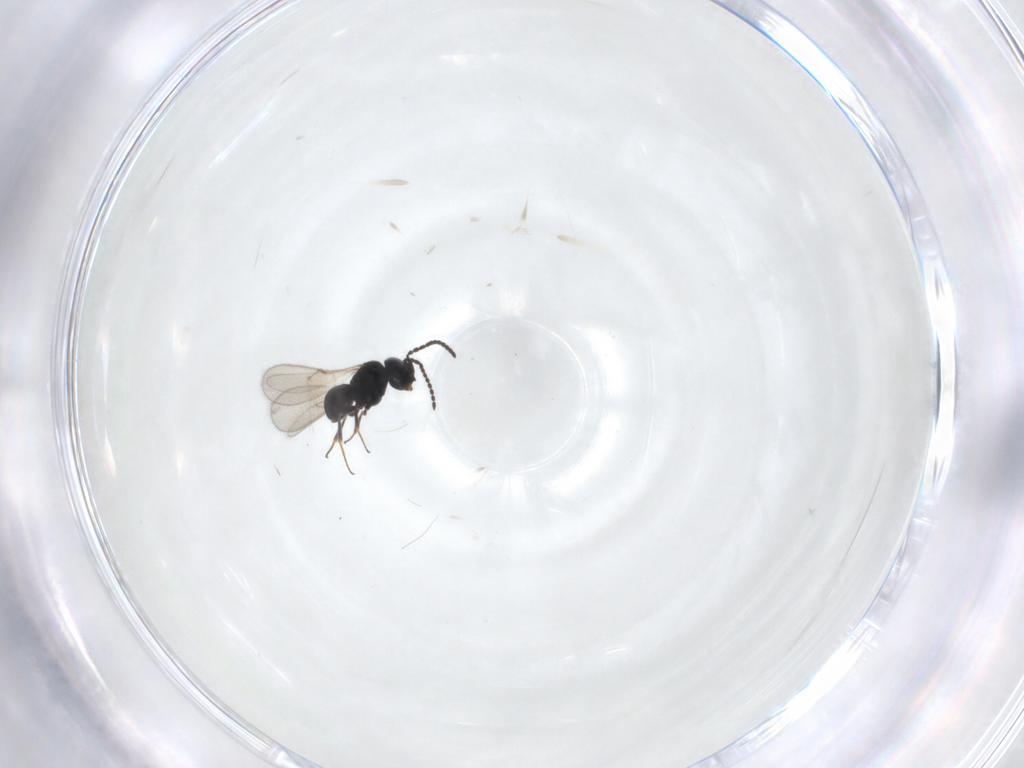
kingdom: Animalia
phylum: Arthropoda
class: Insecta
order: Hymenoptera
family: Scelionidae
